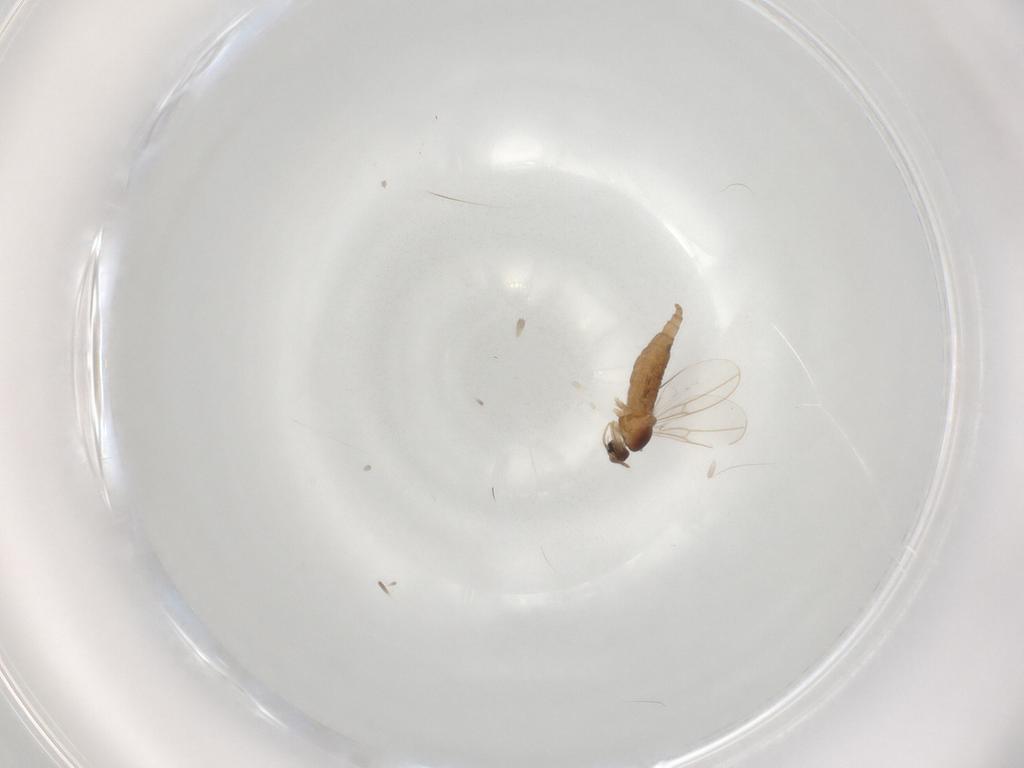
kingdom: Animalia
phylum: Arthropoda
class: Insecta
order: Diptera
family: Cecidomyiidae
